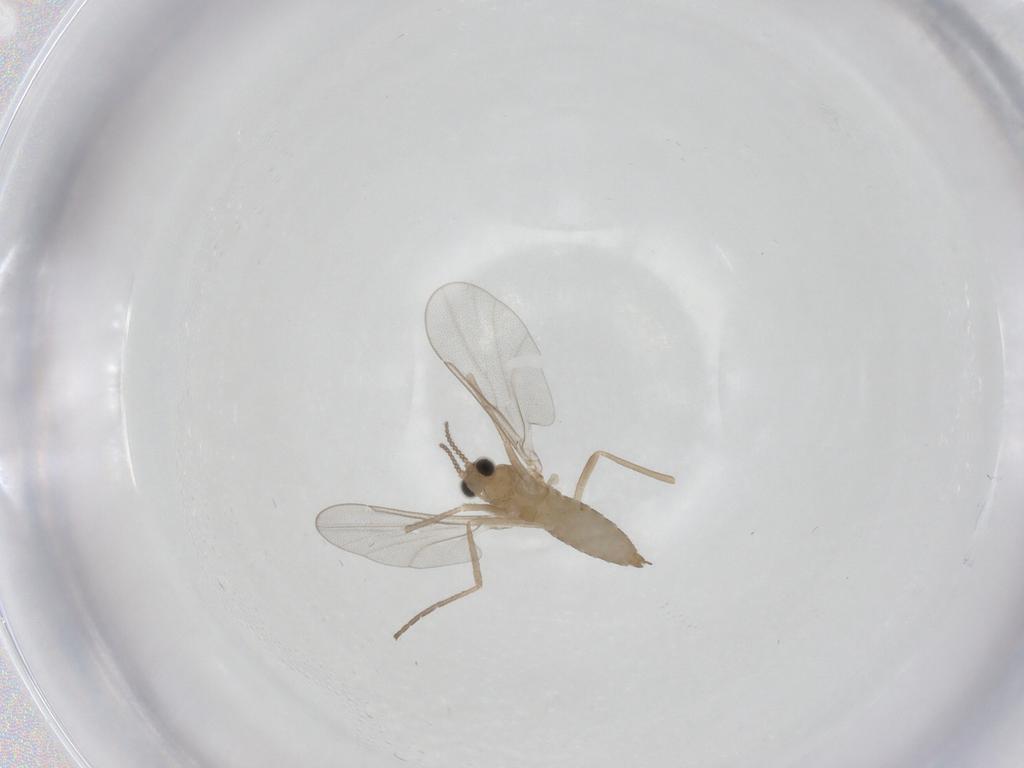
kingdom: Animalia
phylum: Arthropoda
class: Insecta
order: Diptera
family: Cecidomyiidae
